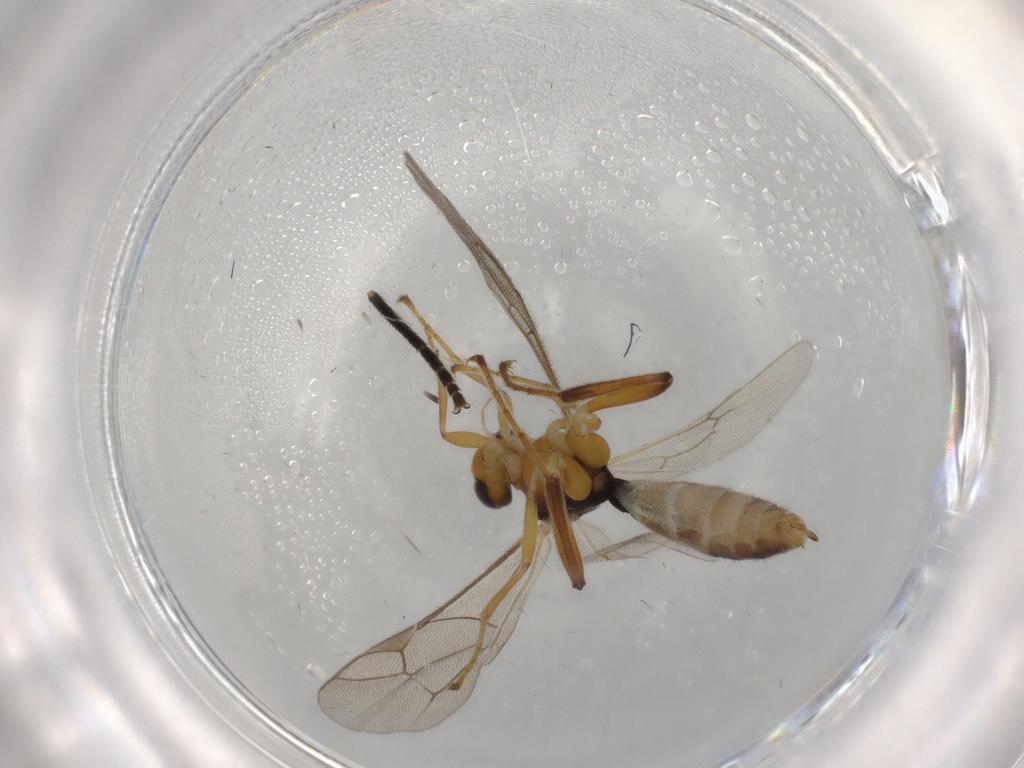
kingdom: Animalia
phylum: Arthropoda
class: Insecta
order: Hymenoptera
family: Ichneumonidae
